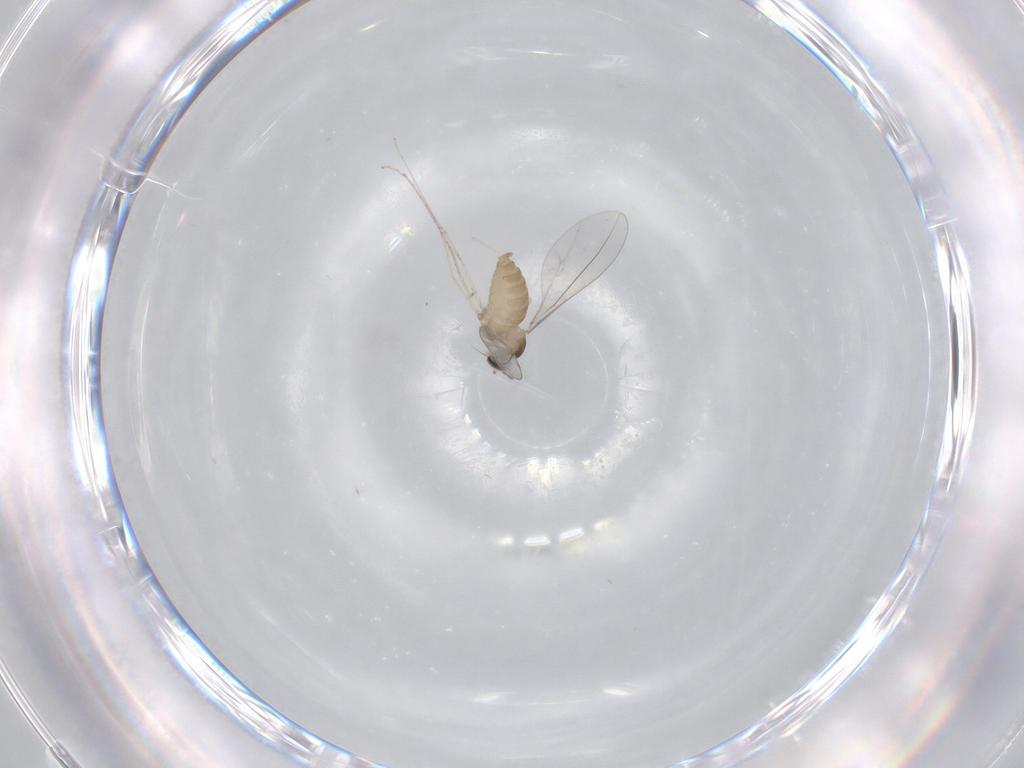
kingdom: Animalia
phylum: Arthropoda
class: Insecta
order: Diptera
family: Cecidomyiidae
